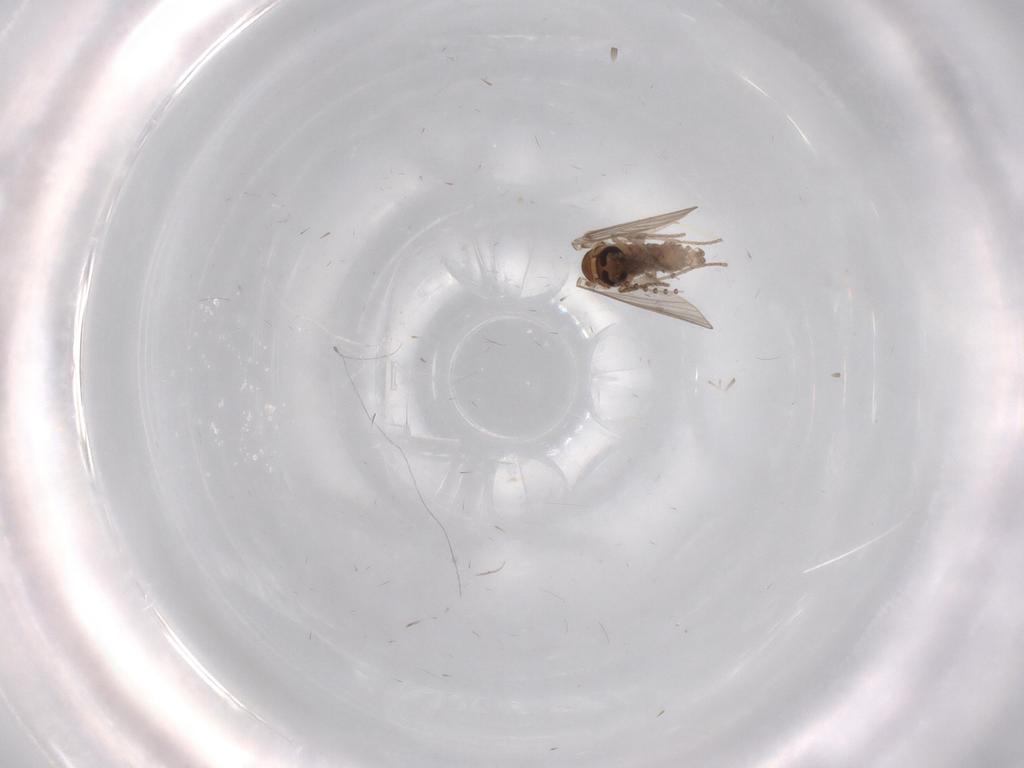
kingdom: Animalia
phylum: Arthropoda
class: Insecta
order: Diptera
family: Psychodidae
